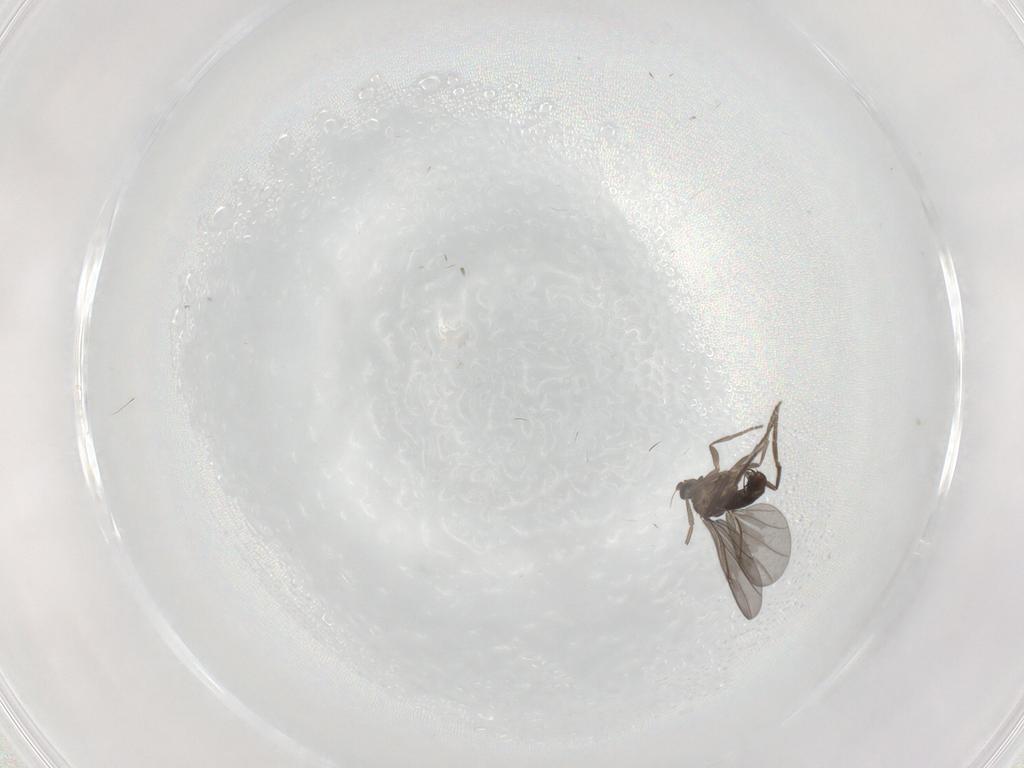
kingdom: Animalia
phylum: Arthropoda
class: Insecta
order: Diptera
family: Phoridae
